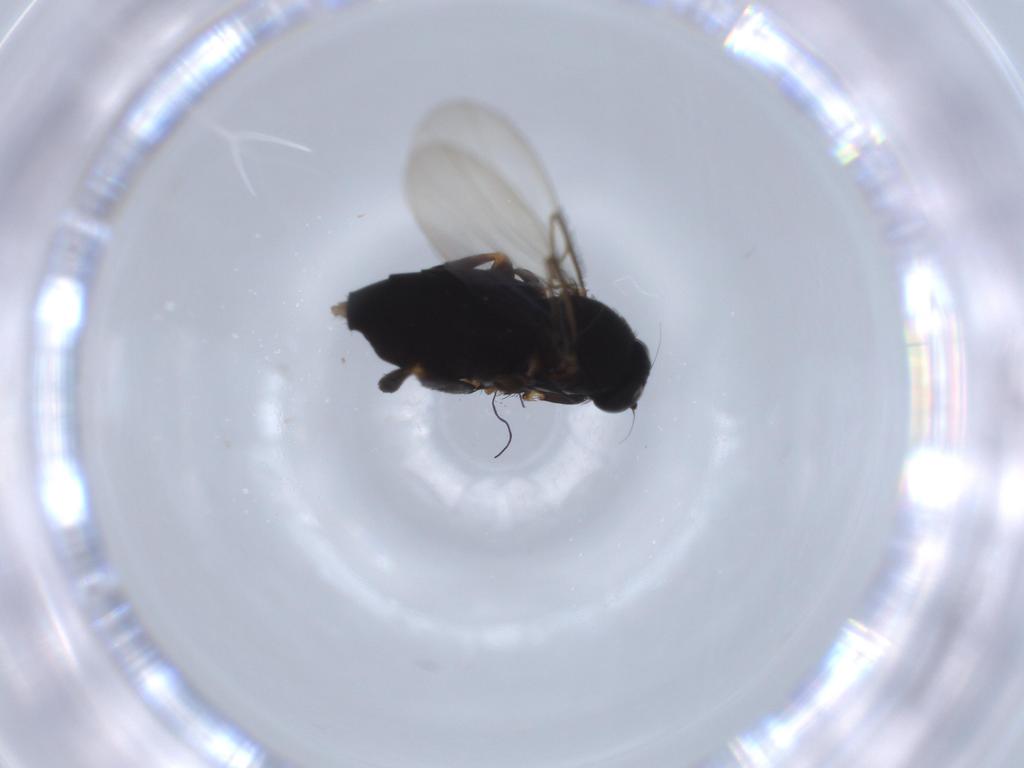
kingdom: Animalia
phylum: Arthropoda
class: Insecta
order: Diptera
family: Chironomidae
